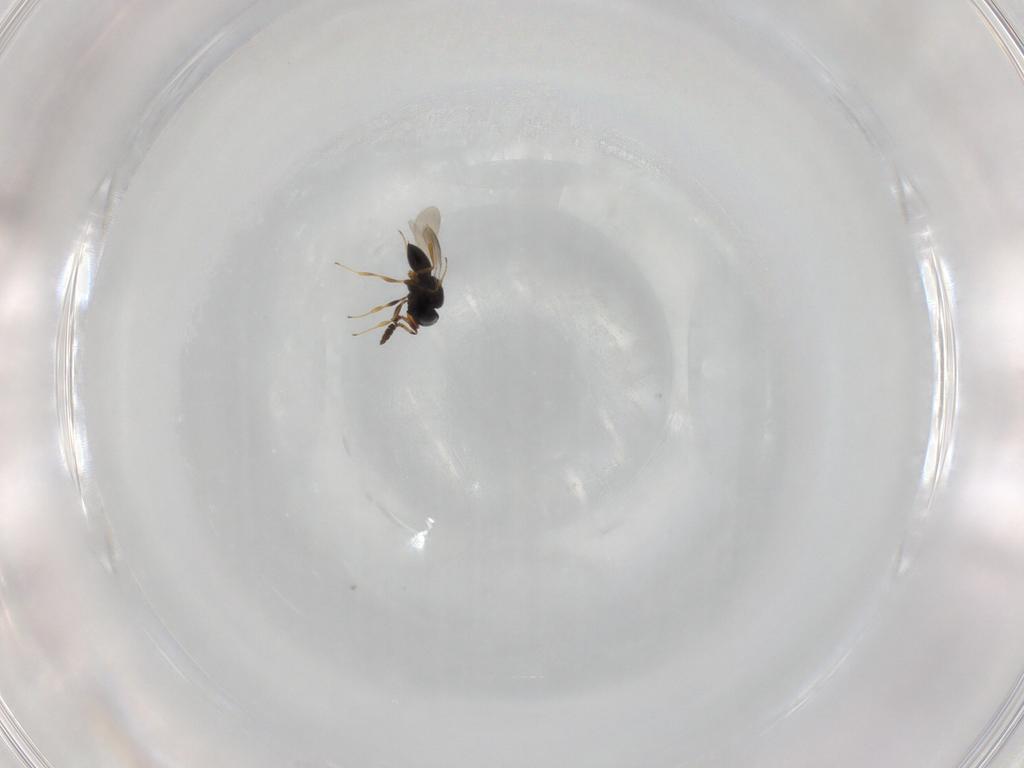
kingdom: Animalia
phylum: Arthropoda
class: Insecta
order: Hymenoptera
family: Scelionidae
